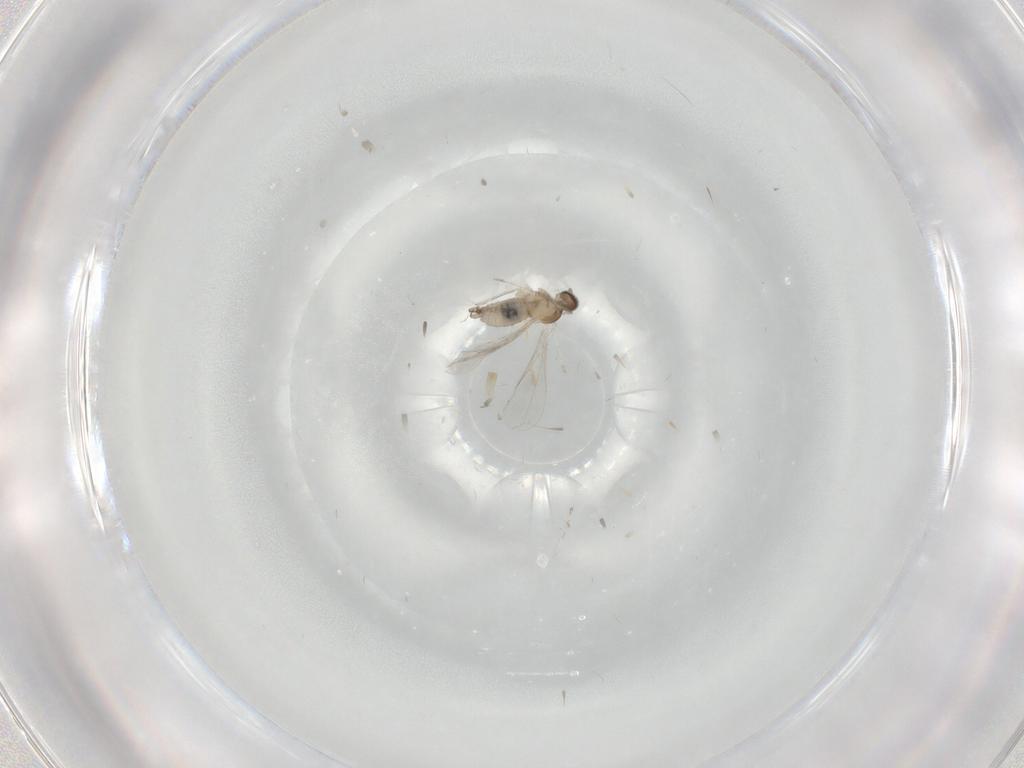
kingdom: Animalia
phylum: Arthropoda
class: Insecta
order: Diptera
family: Cecidomyiidae
